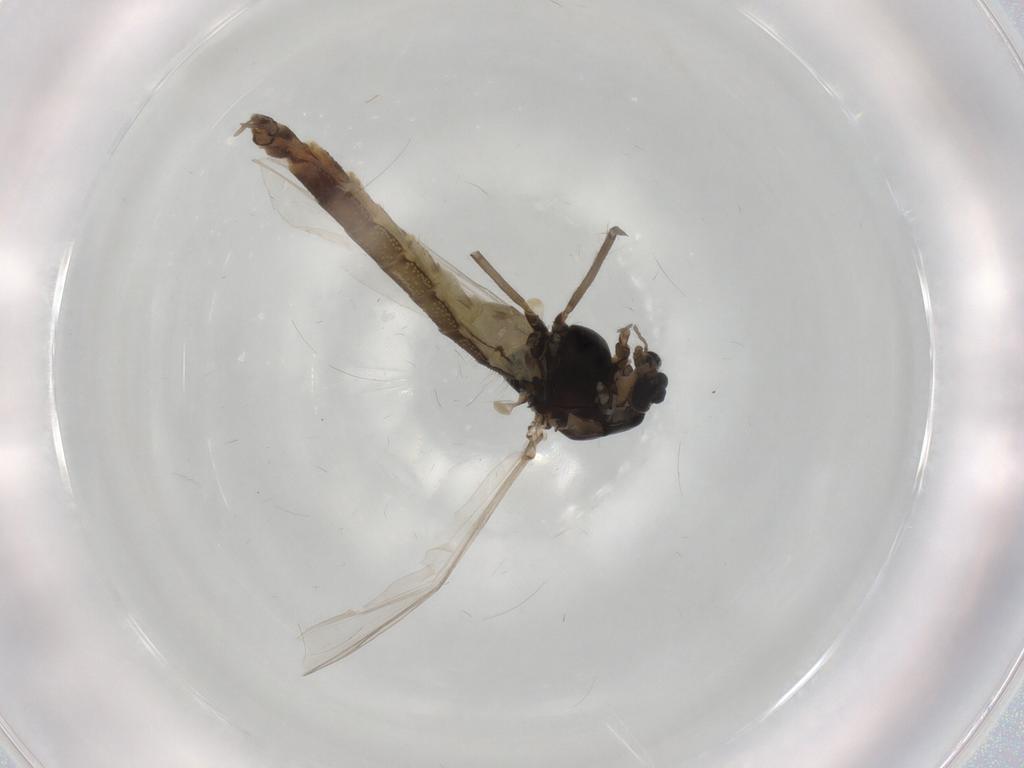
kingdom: Animalia
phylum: Arthropoda
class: Insecta
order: Diptera
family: Chironomidae
